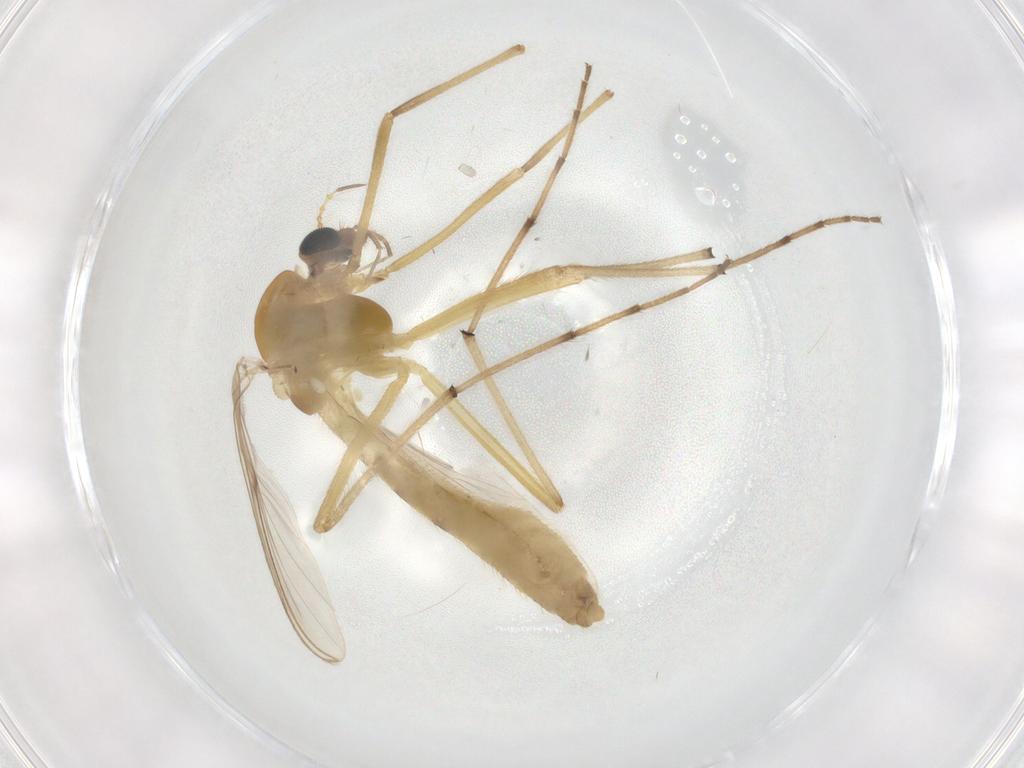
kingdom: Animalia
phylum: Arthropoda
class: Insecta
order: Diptera
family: Chironomidae
